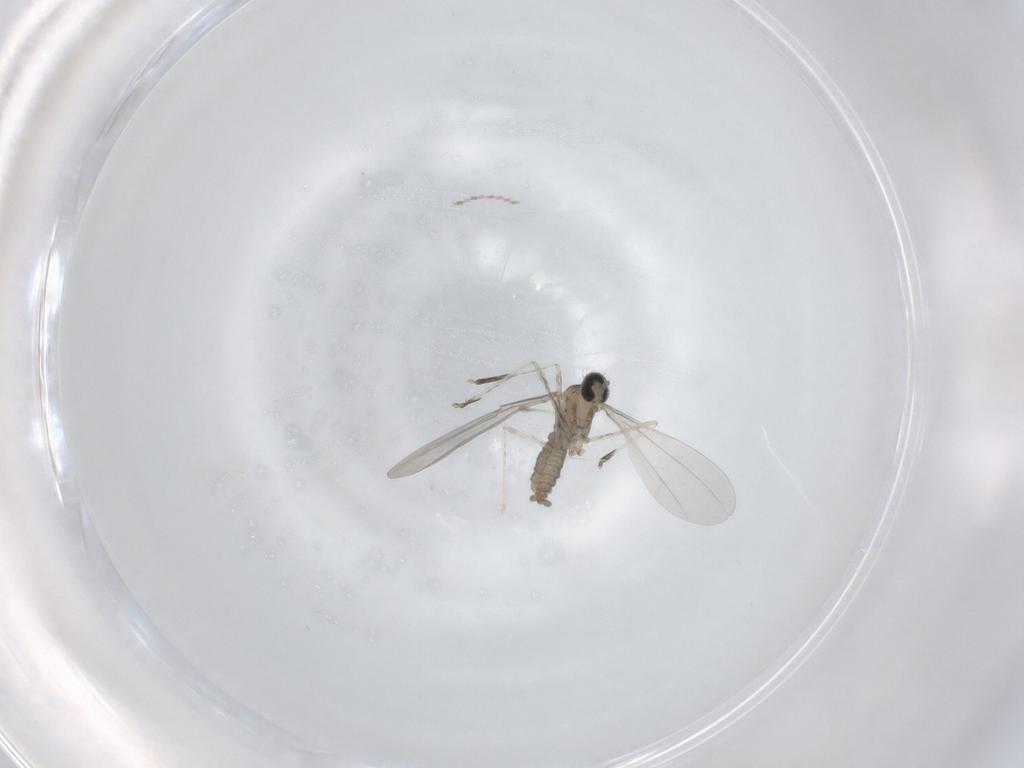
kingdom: Animalia
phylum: Arthropoda
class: Insecta
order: Diptera
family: Cecidomyiidae
